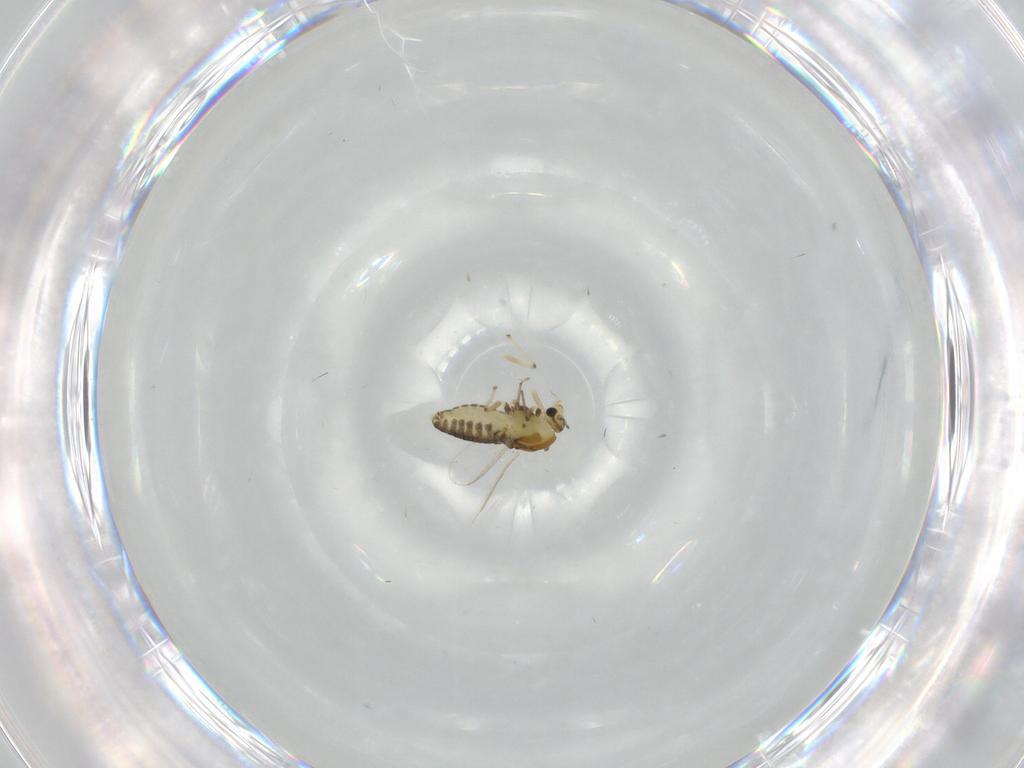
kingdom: Animalia
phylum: Arthropoda
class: Insecta
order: Diptera
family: Chironomidae
